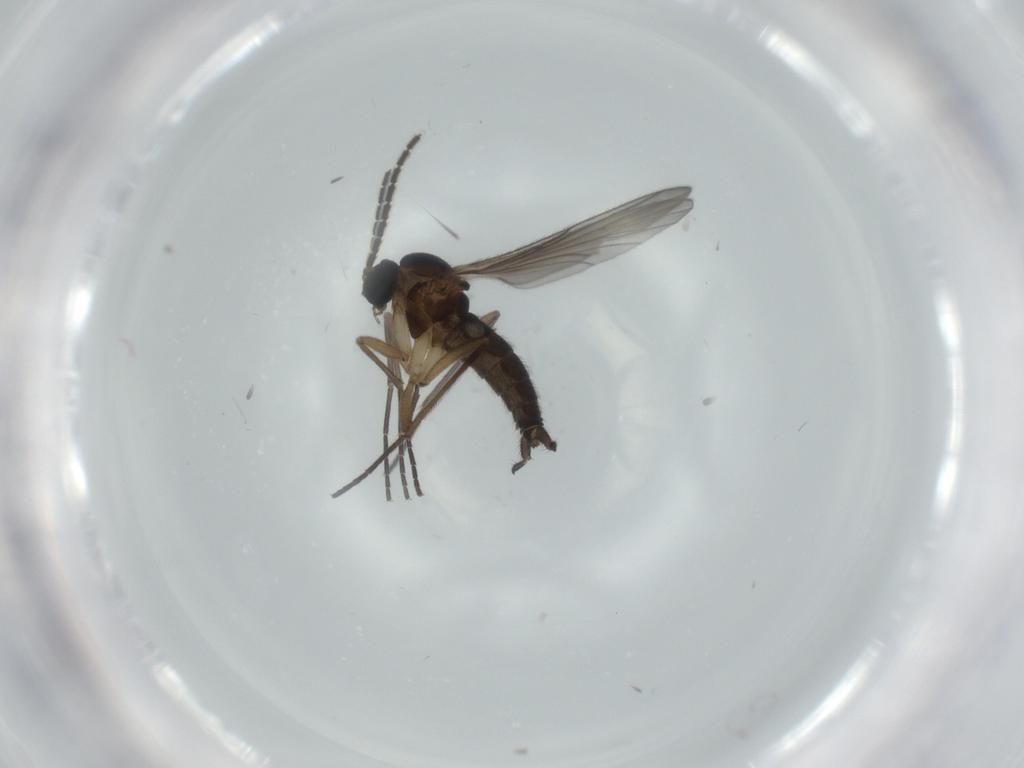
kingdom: Animalia
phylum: Arthropoda
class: Insecta
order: Diptera
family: Sciaridae
